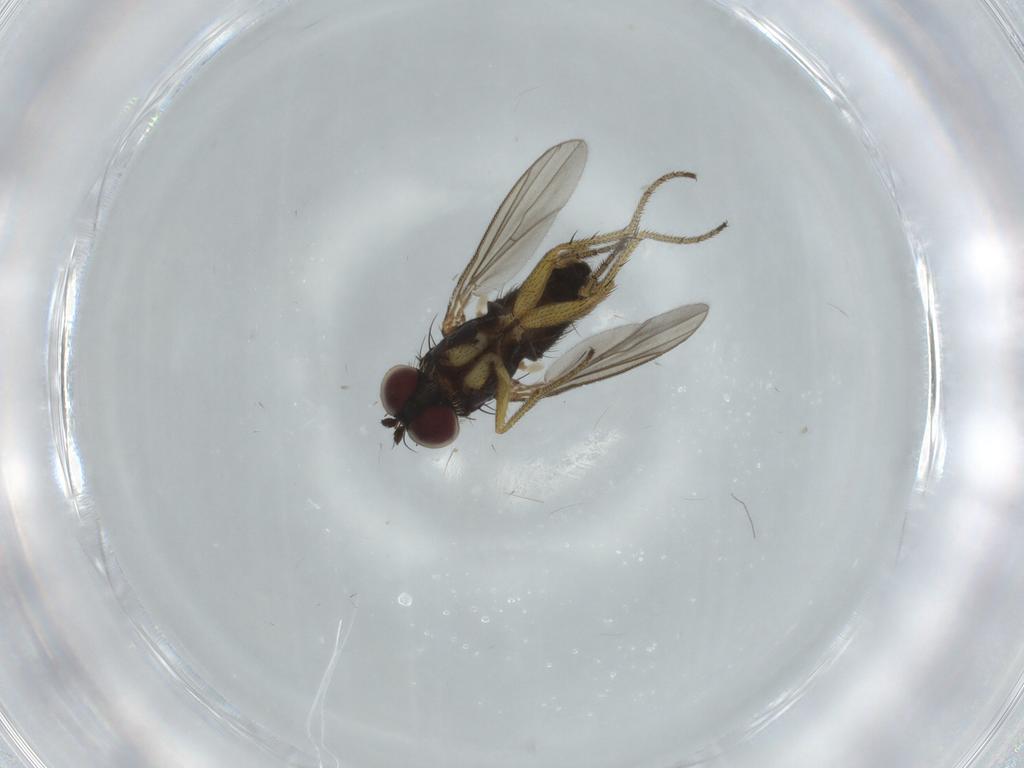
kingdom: Animalia
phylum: Arthropoda
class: Insecta
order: Diptera
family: Dolichopodidae
